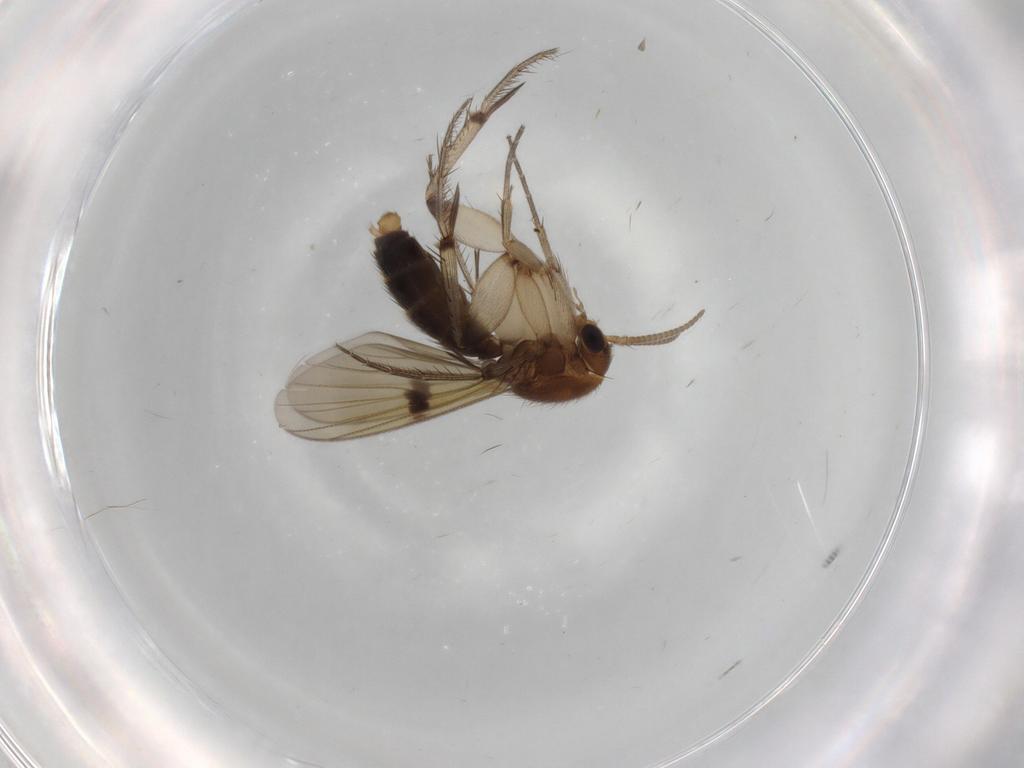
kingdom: Animalia
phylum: Arthropoda
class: Insecta
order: Diptera
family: Mycetophilidae
